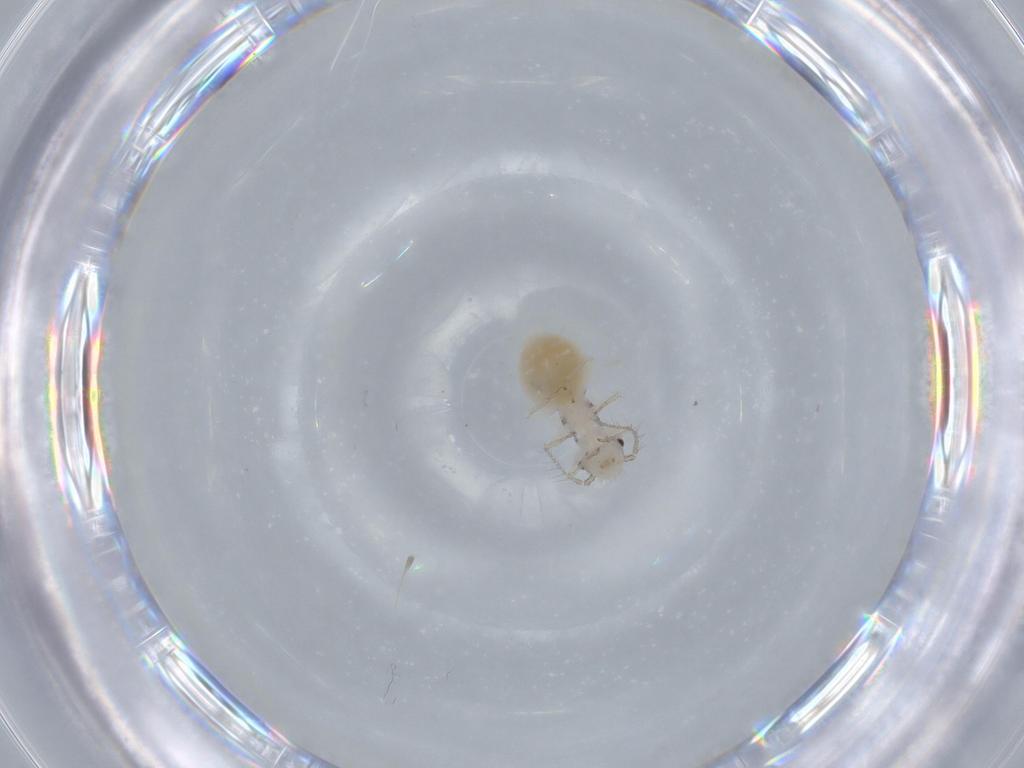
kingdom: Animalia
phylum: Arthropoda
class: Insecta
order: Psocodea
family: Pseudocaeciliidae
